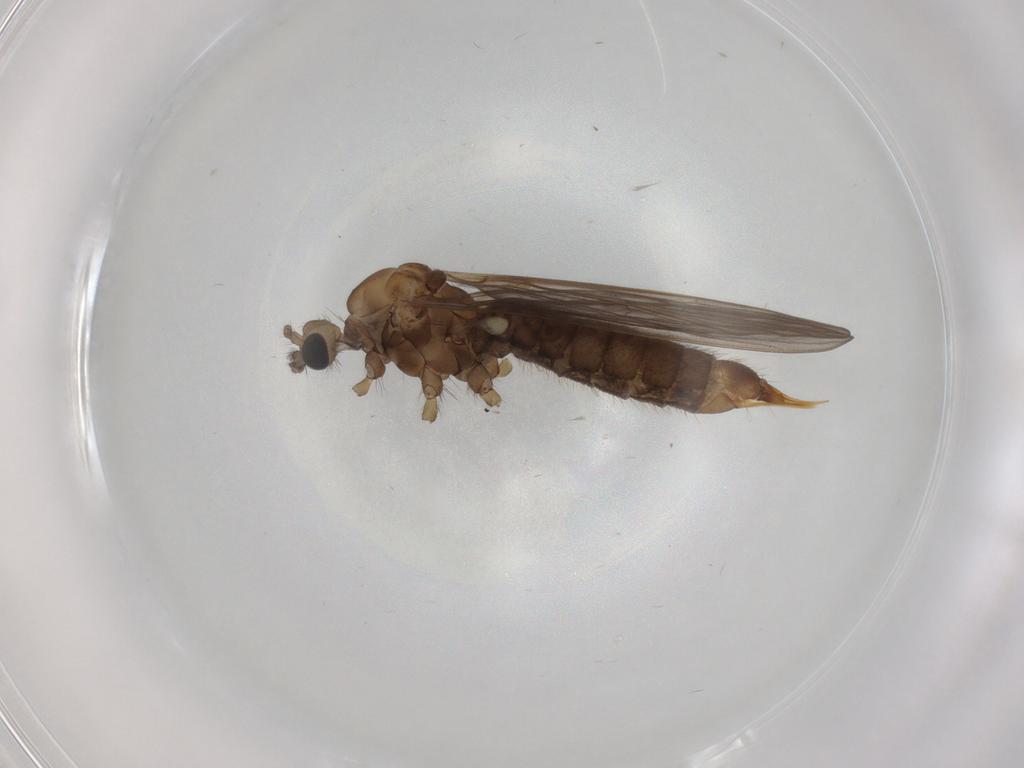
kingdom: Animalia
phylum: Arthropoda
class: Insecta
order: Diptera
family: Limoniidae
